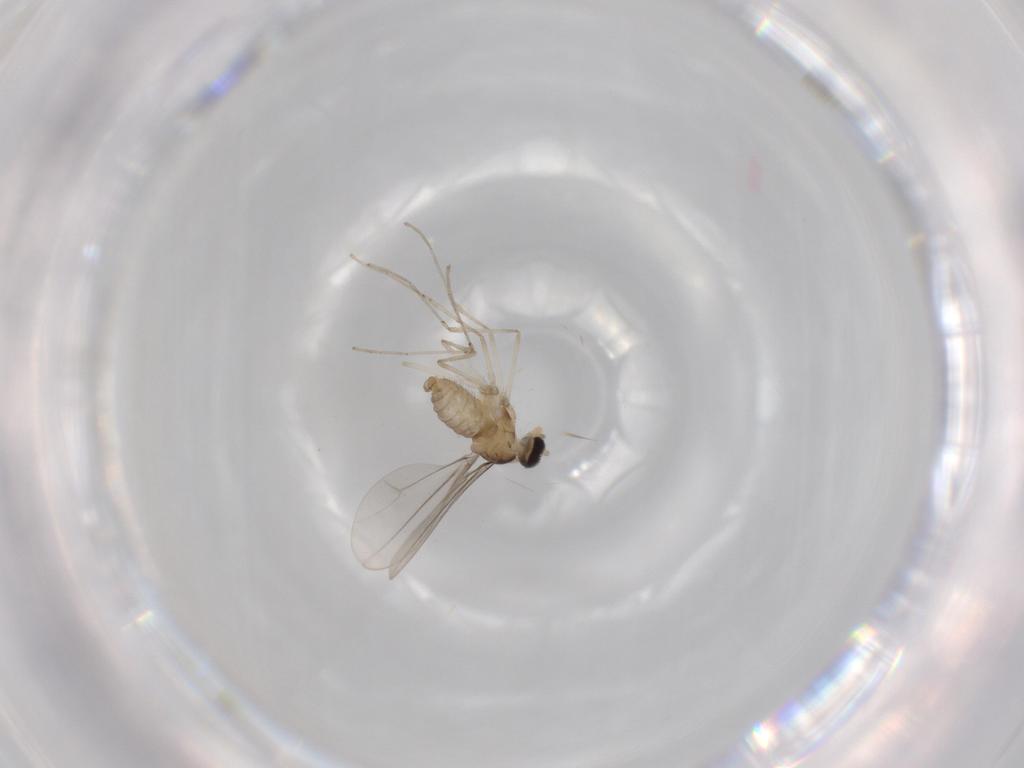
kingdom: Animalia
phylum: Arthropoda
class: Insecta
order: Diptera
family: Cecidomyiidae
